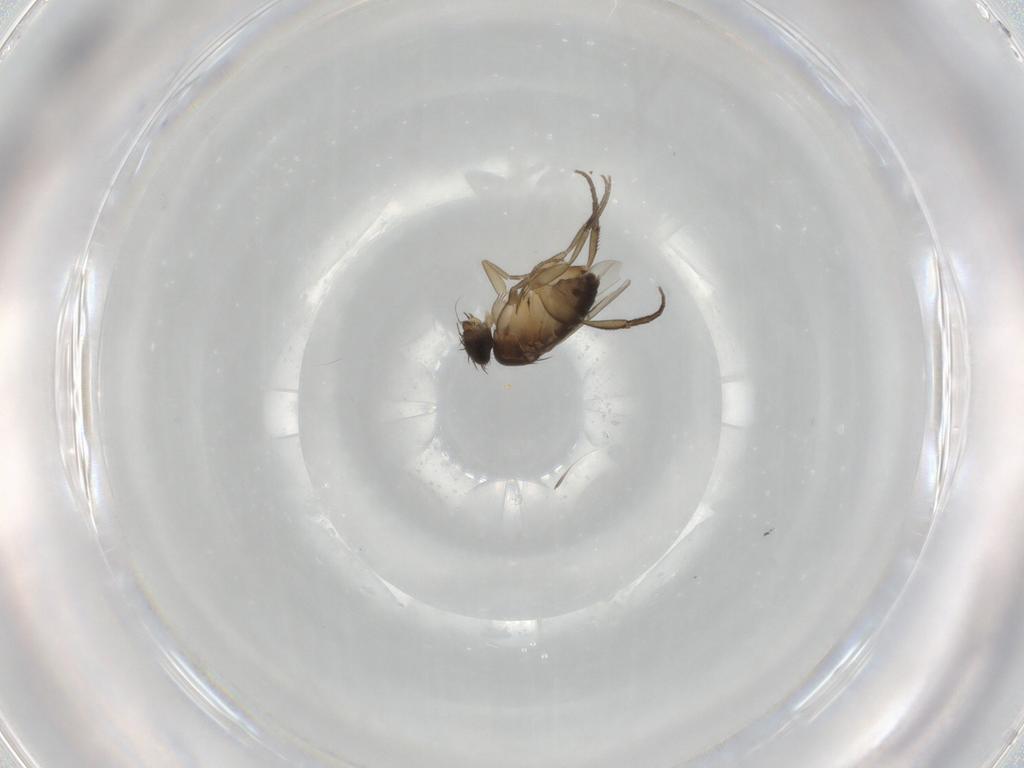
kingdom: Animalia
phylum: Arthropoda
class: Insecta
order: Diptera
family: Phoridae
